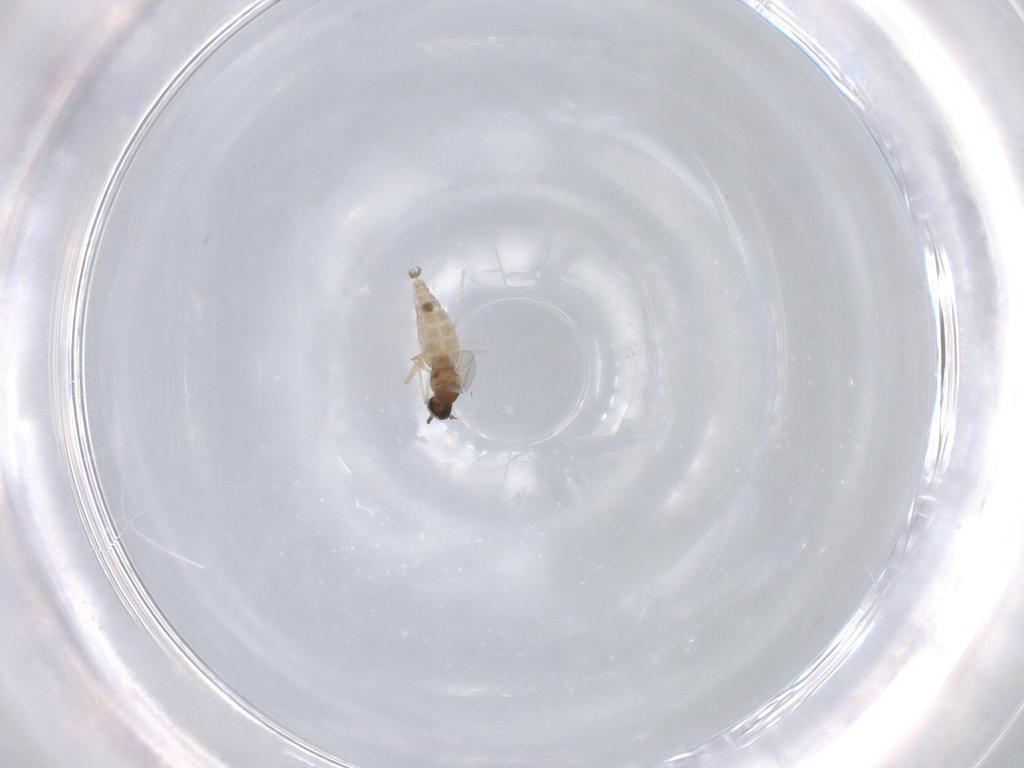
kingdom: Animalia
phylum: Arthropoda
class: Insecta
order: Diptera
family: Cecidomyiidae
